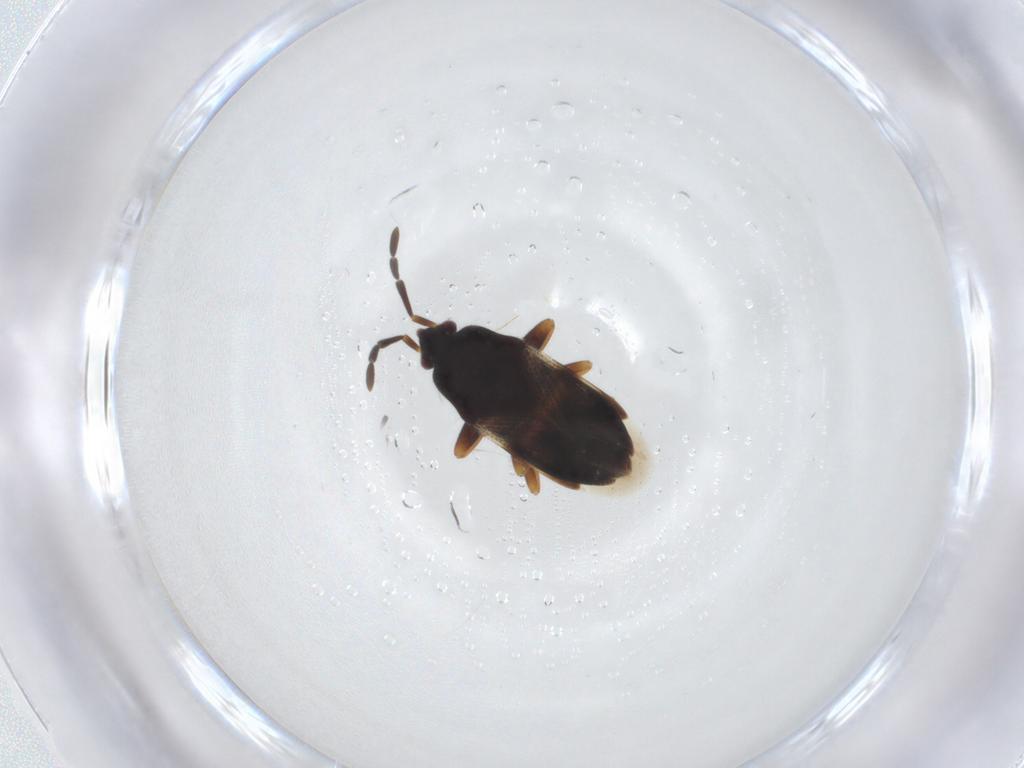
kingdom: Animalia
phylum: Arthropoda
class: Insecta
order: Hemiptera
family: Rhyparochromidae
